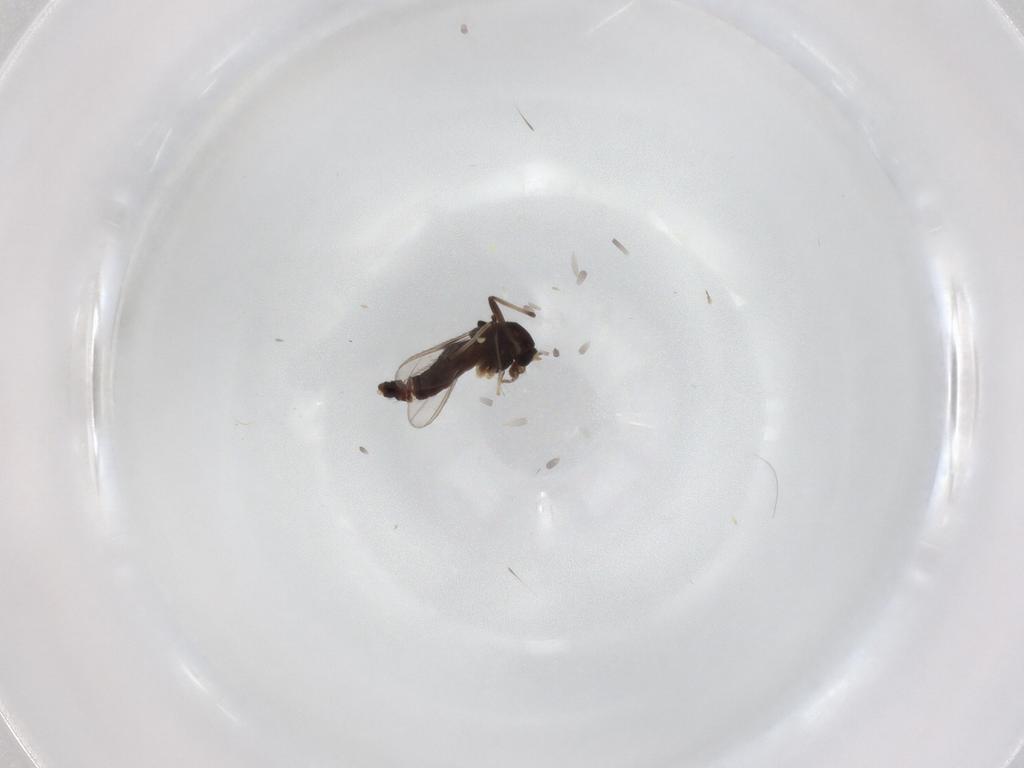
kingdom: Animalia
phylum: Arthropoda
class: Insecta
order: Diptera
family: Chironomidae
